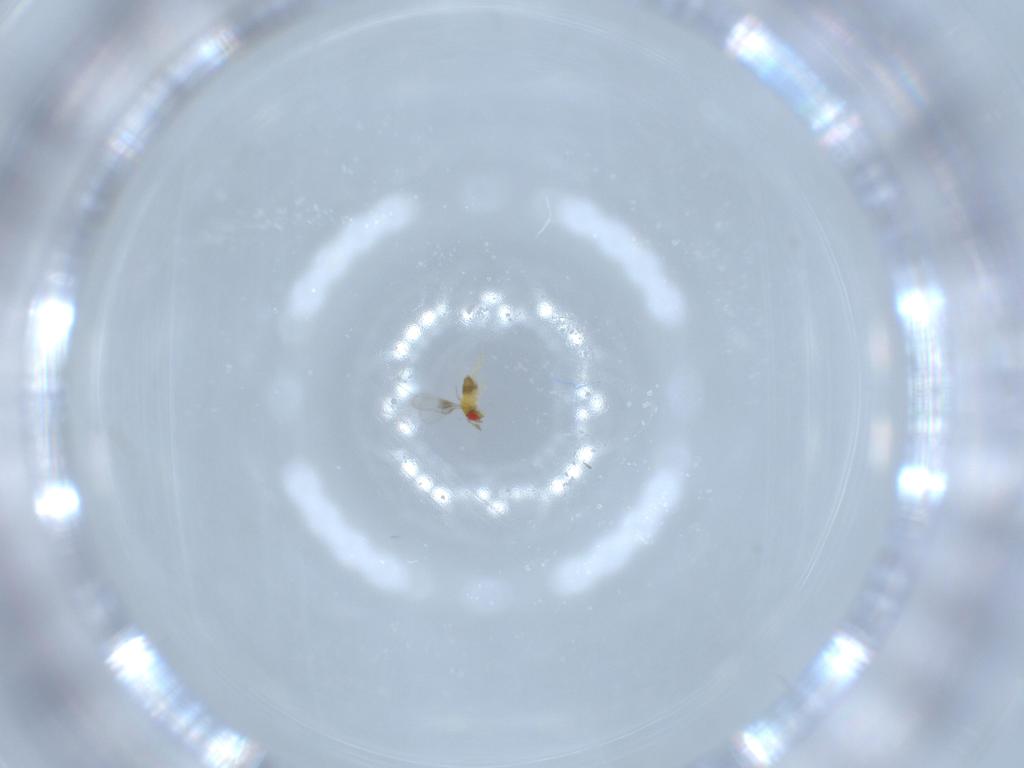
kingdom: Animalia
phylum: Arthropoda
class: Insecta
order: Hymenoptera
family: Trichogrammatidae
